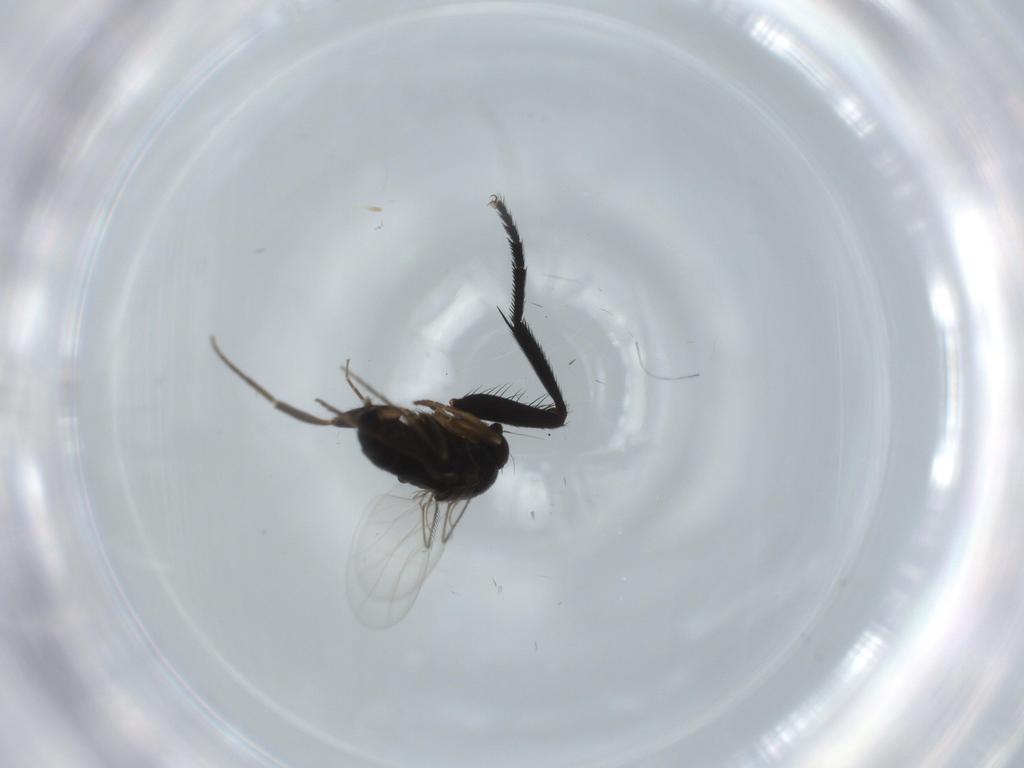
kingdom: Animalia
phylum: Arthropoda
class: Insecta
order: Diptera
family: Phoridae
